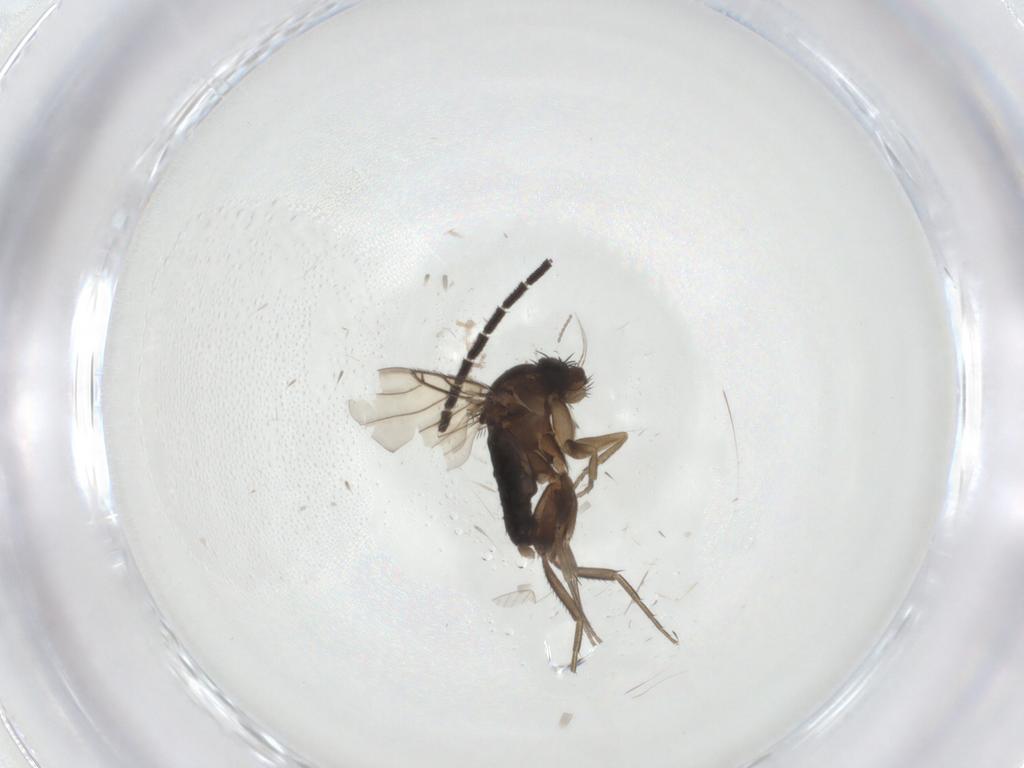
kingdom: Animalia
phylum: Arthropoda
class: Insecta
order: Diptera
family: Phoridae
